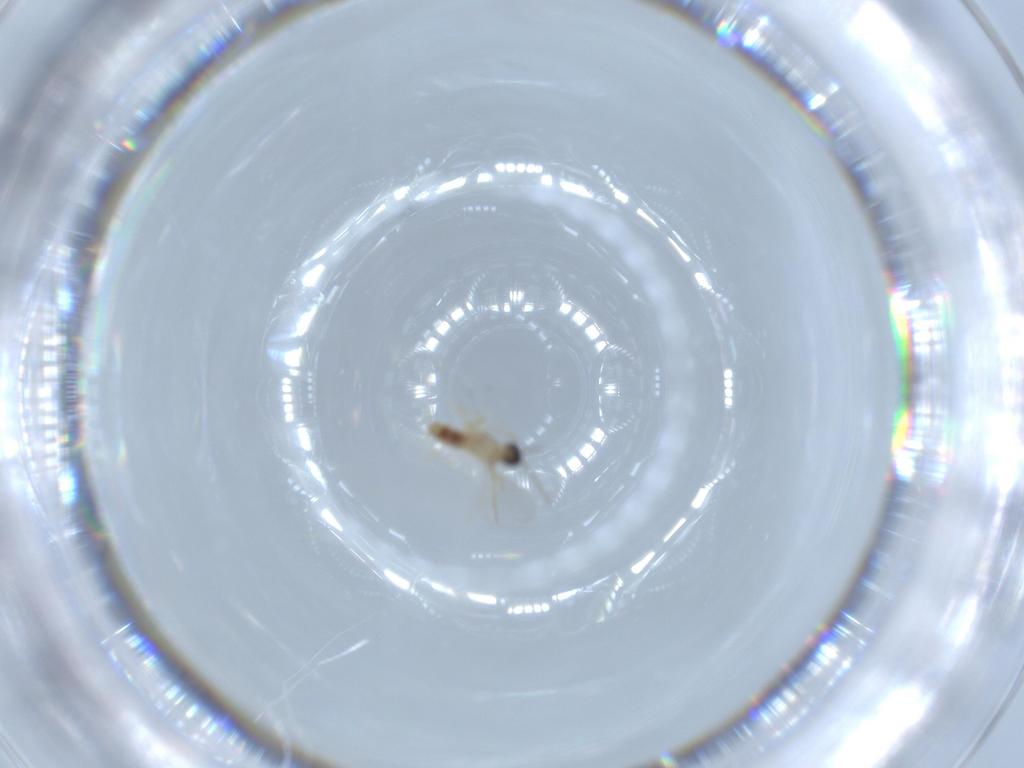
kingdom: Animalia
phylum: Arthropoda
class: Insecta
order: Diptera
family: Cecidomyiidae
